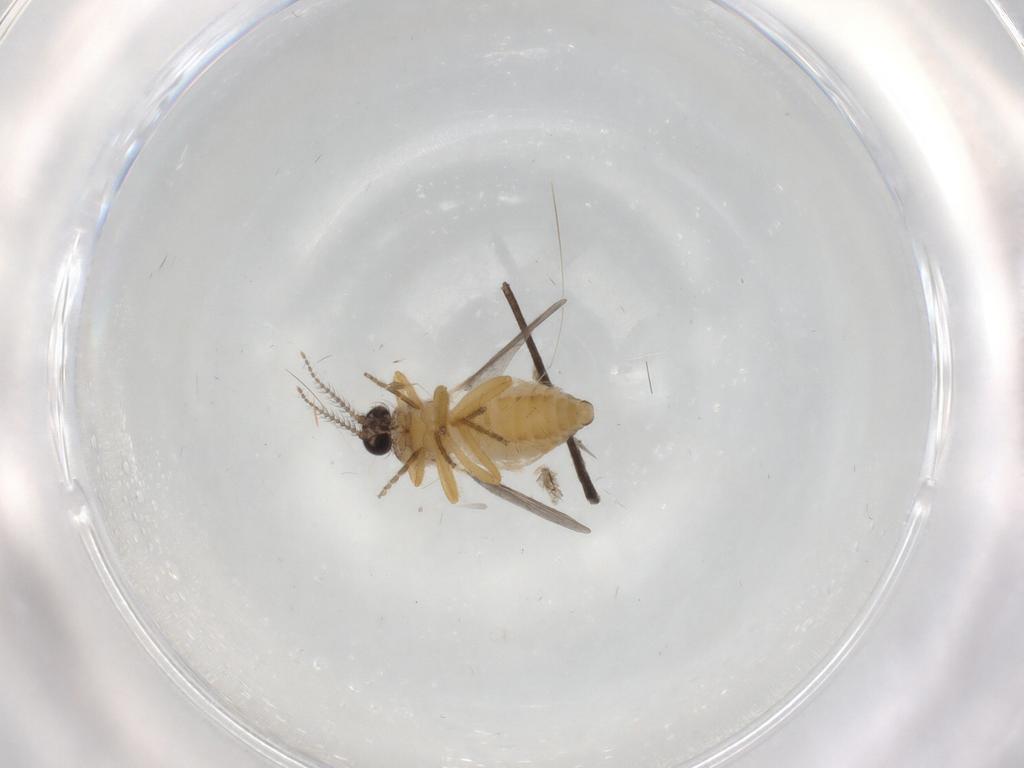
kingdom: Animalia
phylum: Arthropoda
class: Insecta
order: Diptera
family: Ceratopogonidae
